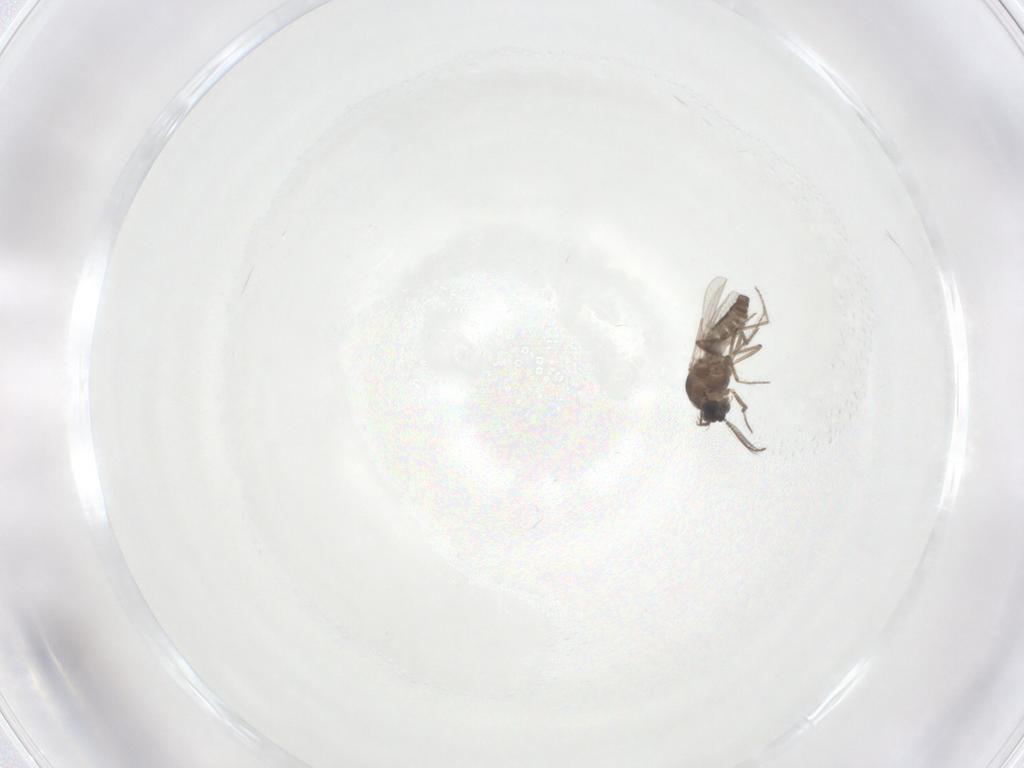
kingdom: Animalia
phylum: Arthropoda
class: Insecta
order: Diptera
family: Ceratopogonidae
